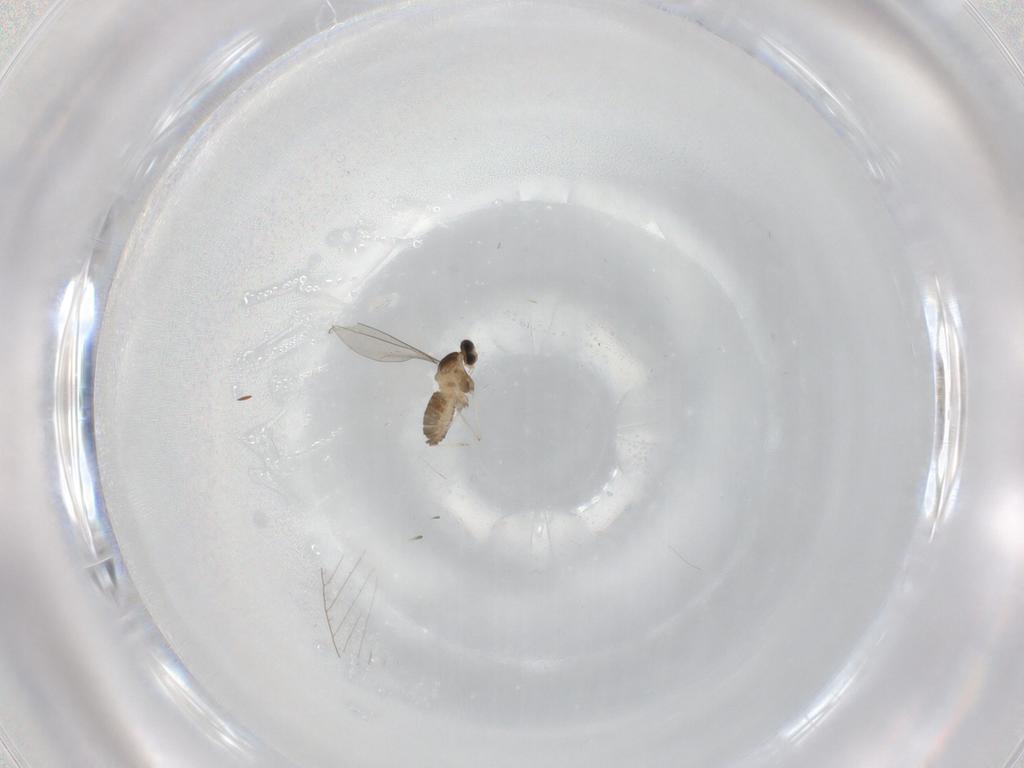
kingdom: Animalia
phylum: Arthropoda
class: Insecta
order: Diptera
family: Cecidomyiidae
